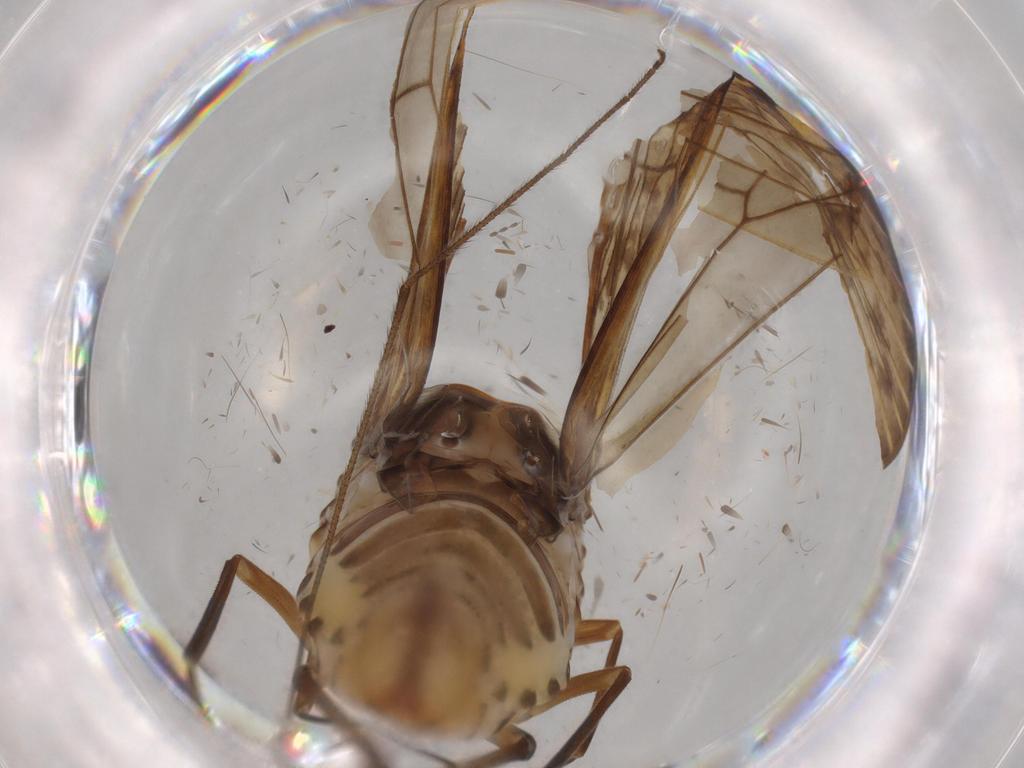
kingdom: Animalia
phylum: Arthropoda
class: Insecta
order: Hemiptera
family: Cixiidae
